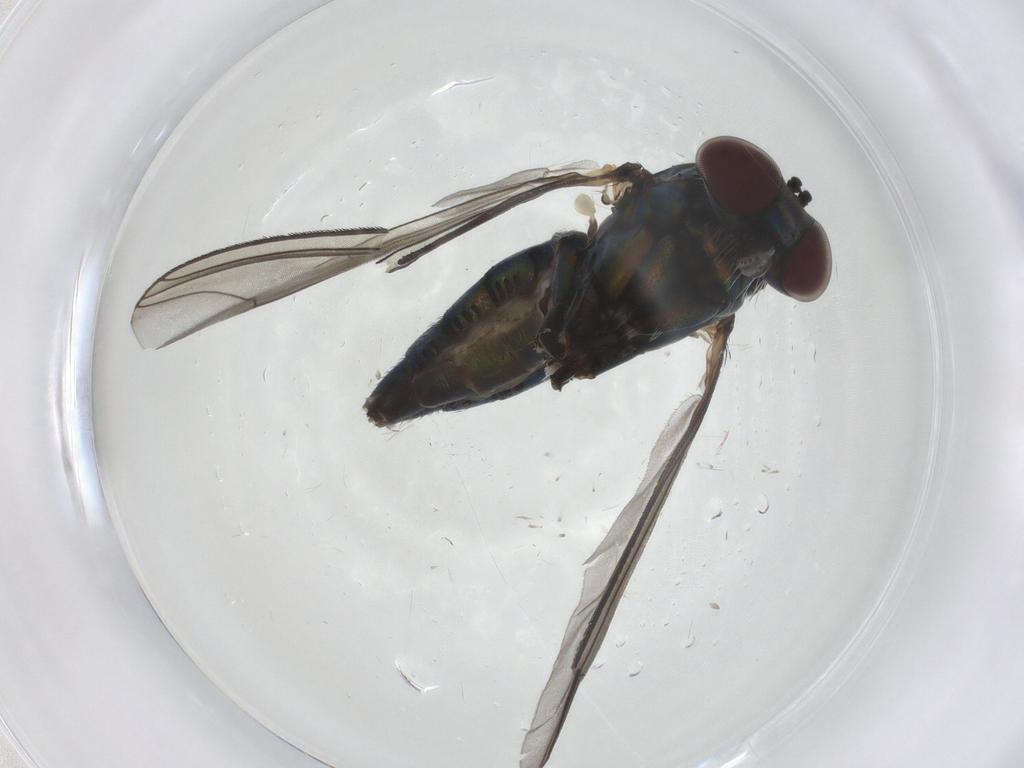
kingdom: Animalia
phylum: Arthropoda
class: Insecta
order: Diptera
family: Dolichopodidae
